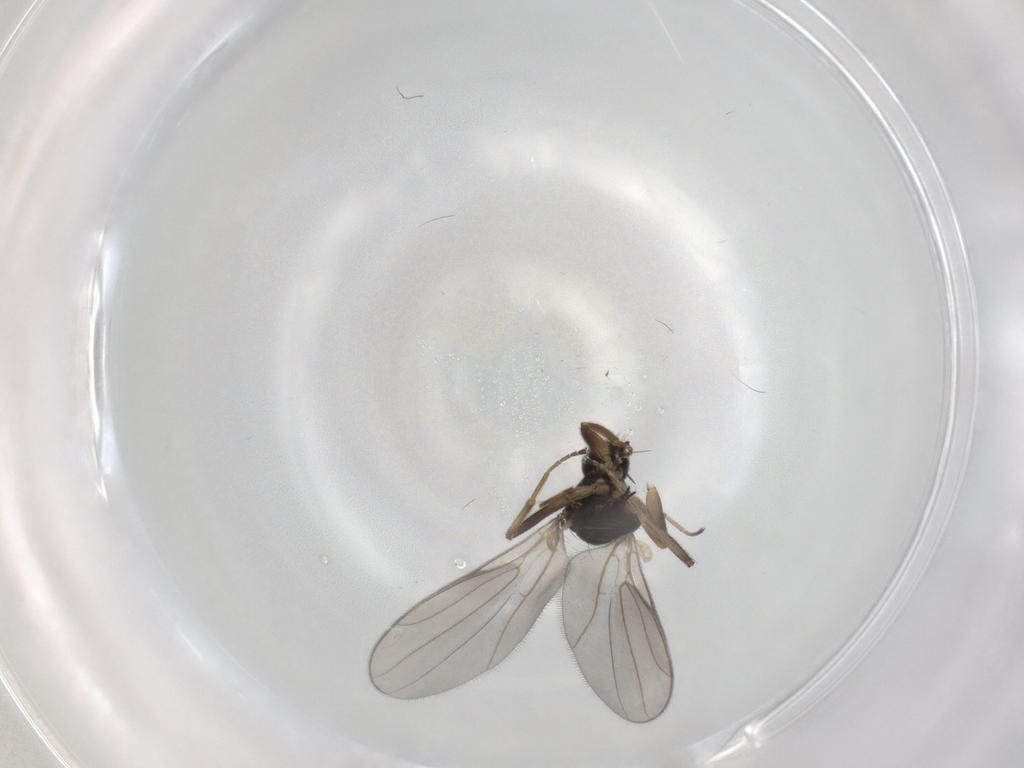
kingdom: Animalia
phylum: Arthropoda
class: Insecta
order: Diptera
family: Hybotidae
